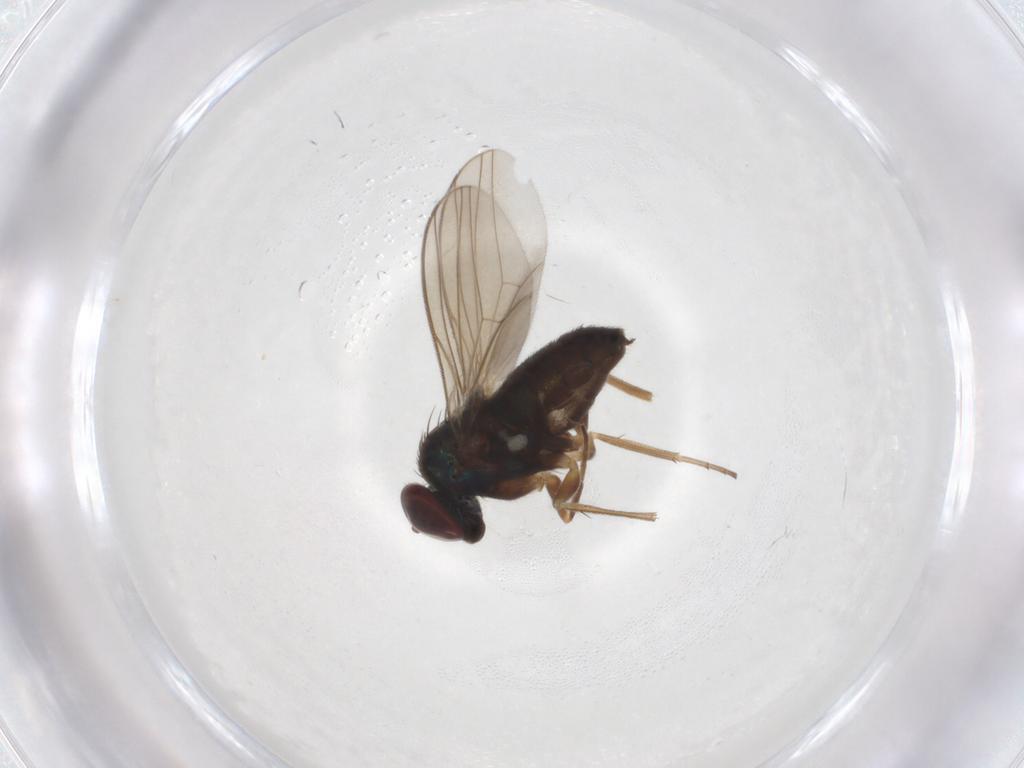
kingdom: Animalia
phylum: Arthropoda
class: Insecta
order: Diptera
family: Dolichopodidae
